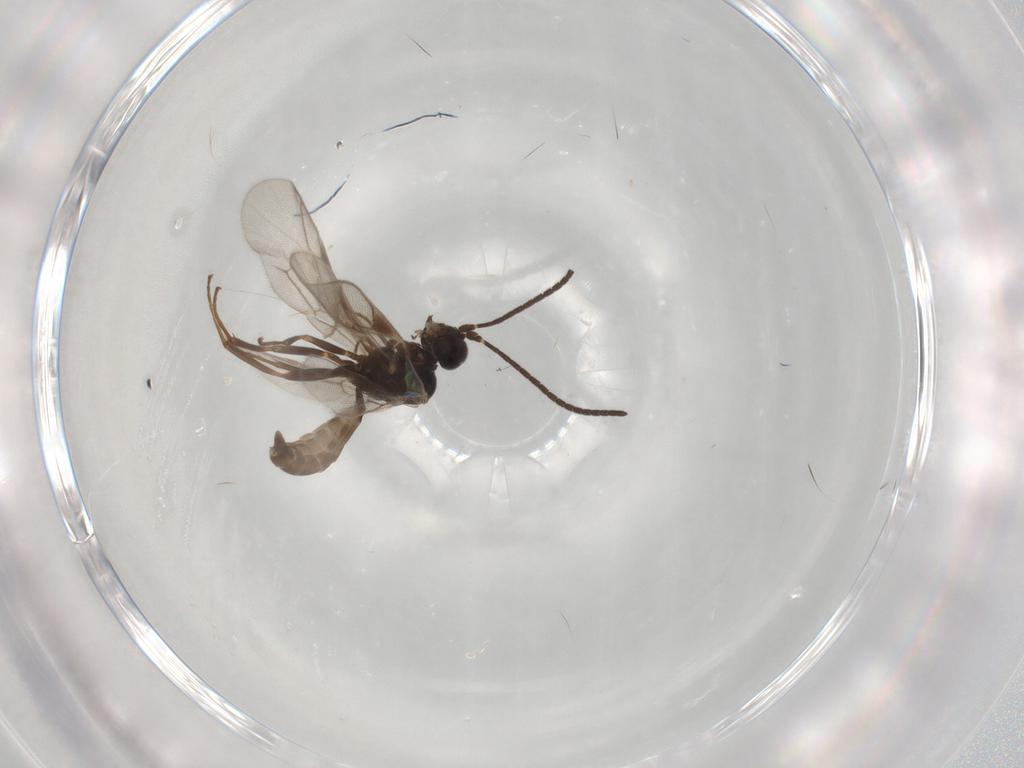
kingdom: Animalia
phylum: Arthropoda
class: Insecta
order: Hymenoptera
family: Ichneumonidae
